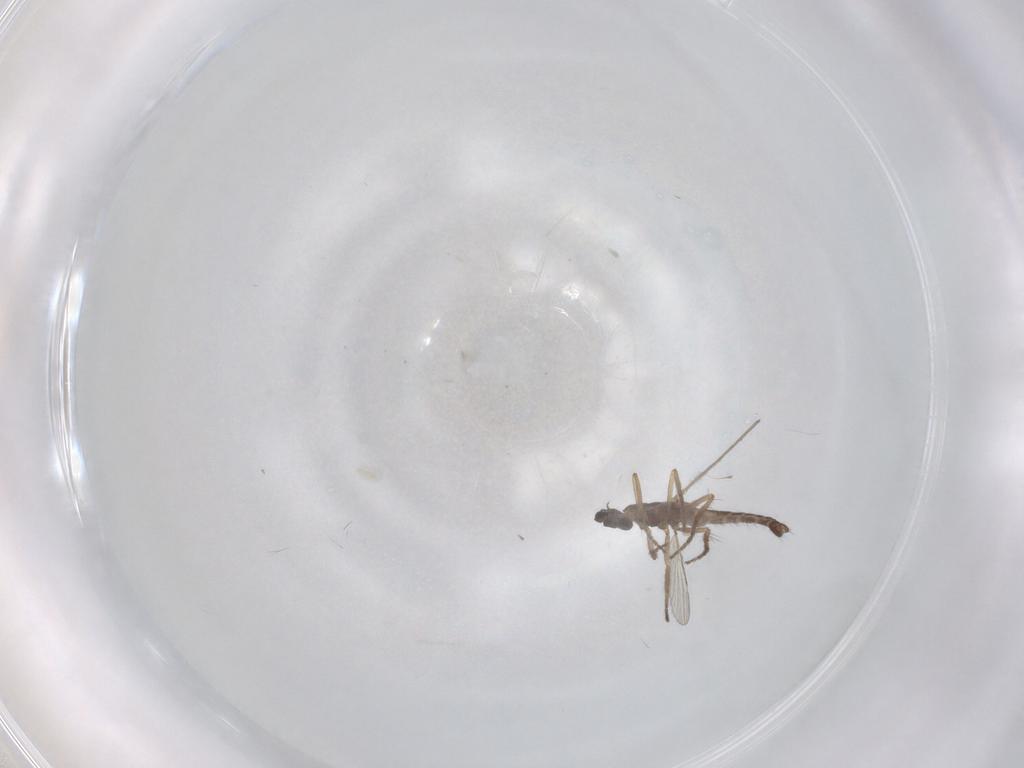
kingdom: Animalia
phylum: Arthropoda
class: Insecta
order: Diptera
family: Ceratopogonidae
